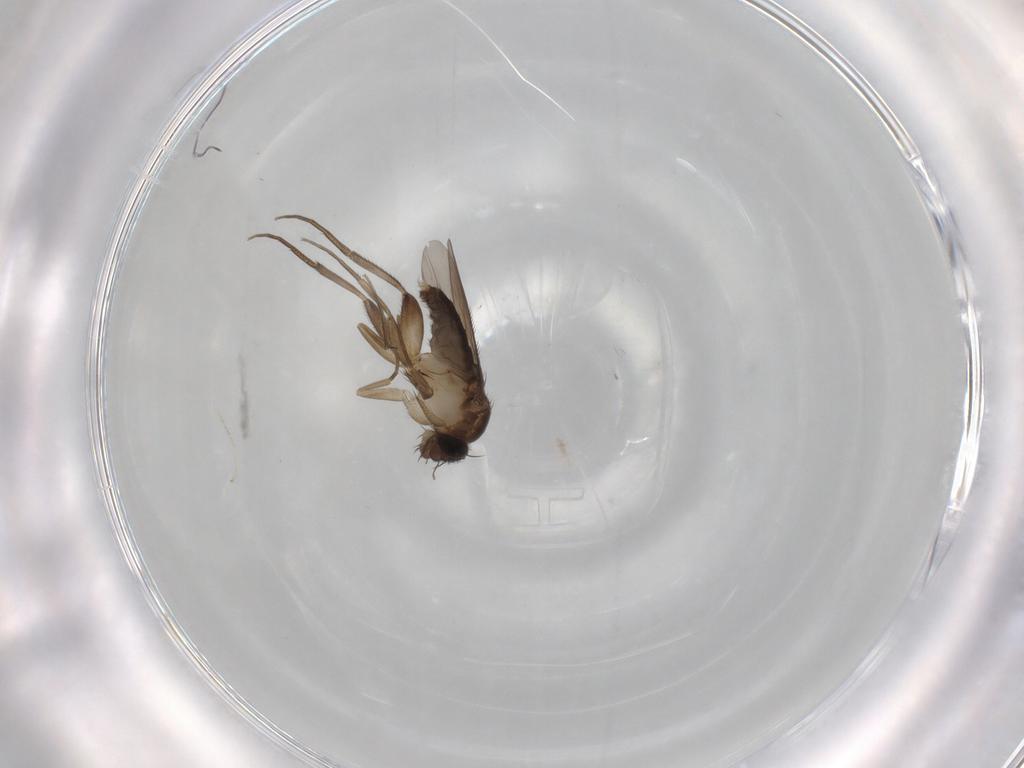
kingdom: Animalia
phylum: Arthropoda
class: Insecta
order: Diptera
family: Phoridae
